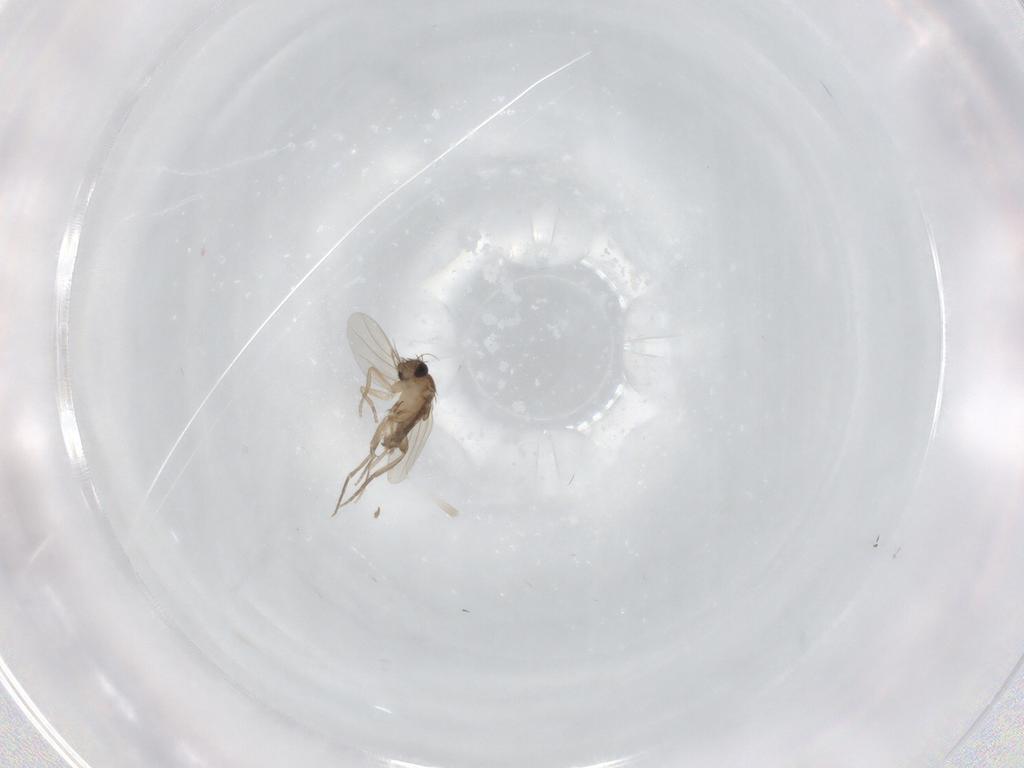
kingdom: Animalia
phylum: Arthropoda
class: Insecta
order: Diptera
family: Phoridae
